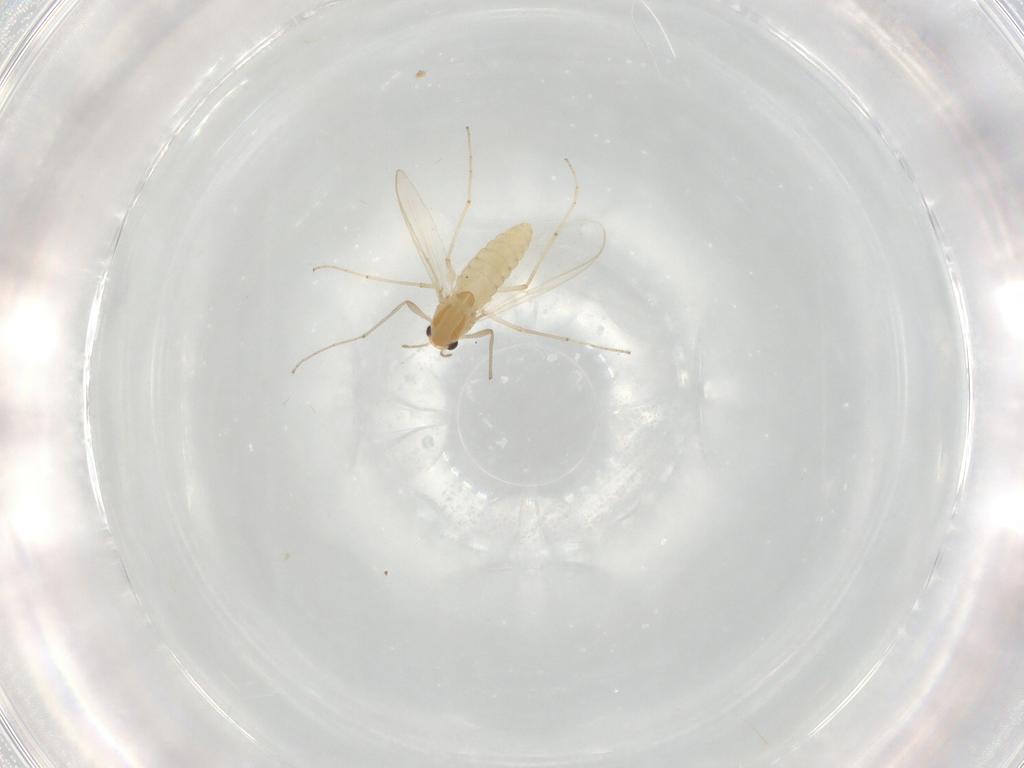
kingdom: Animalia
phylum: Arthropoda
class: Insecta
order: Diptera
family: Chironomidae
